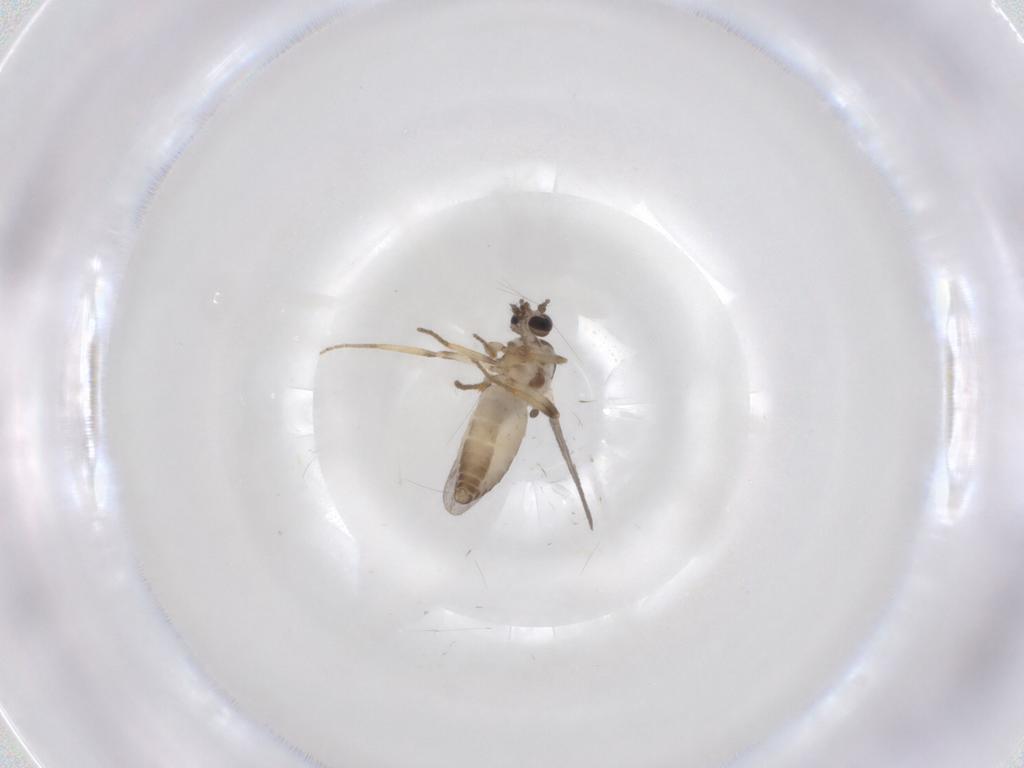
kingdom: Animalia
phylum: Arthropoda
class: Insecta
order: Diptera
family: Ceratopogonidae
